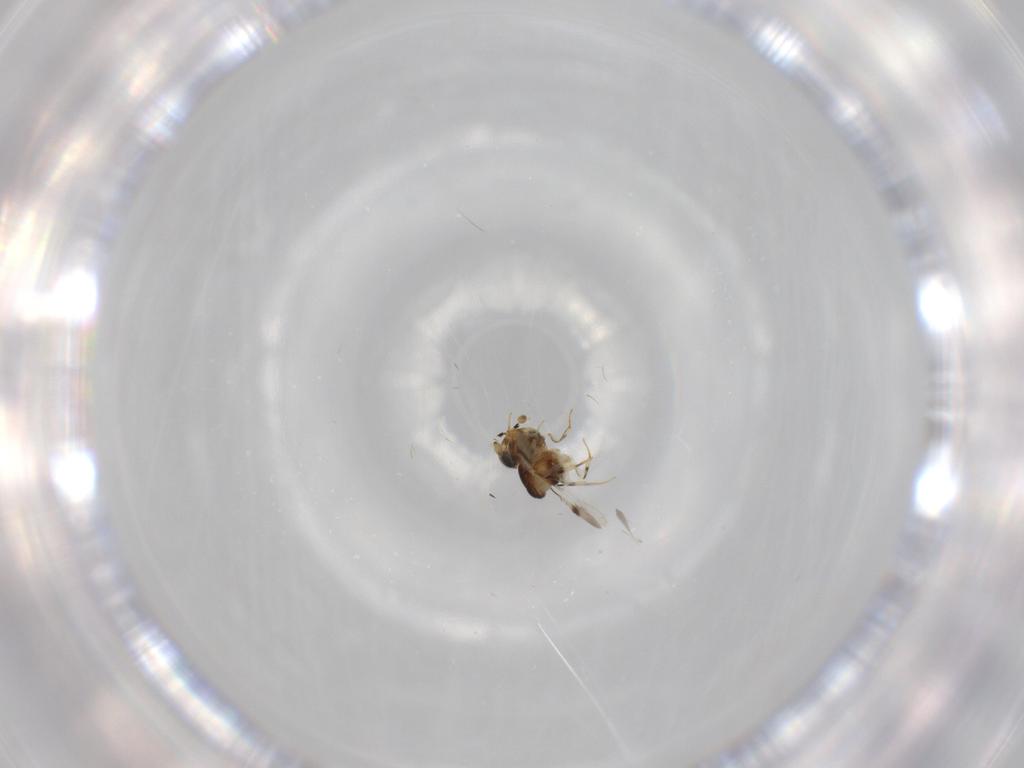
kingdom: Animalia
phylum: Arthropoda
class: Insecta
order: Hymenoptera
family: Scelionidae
